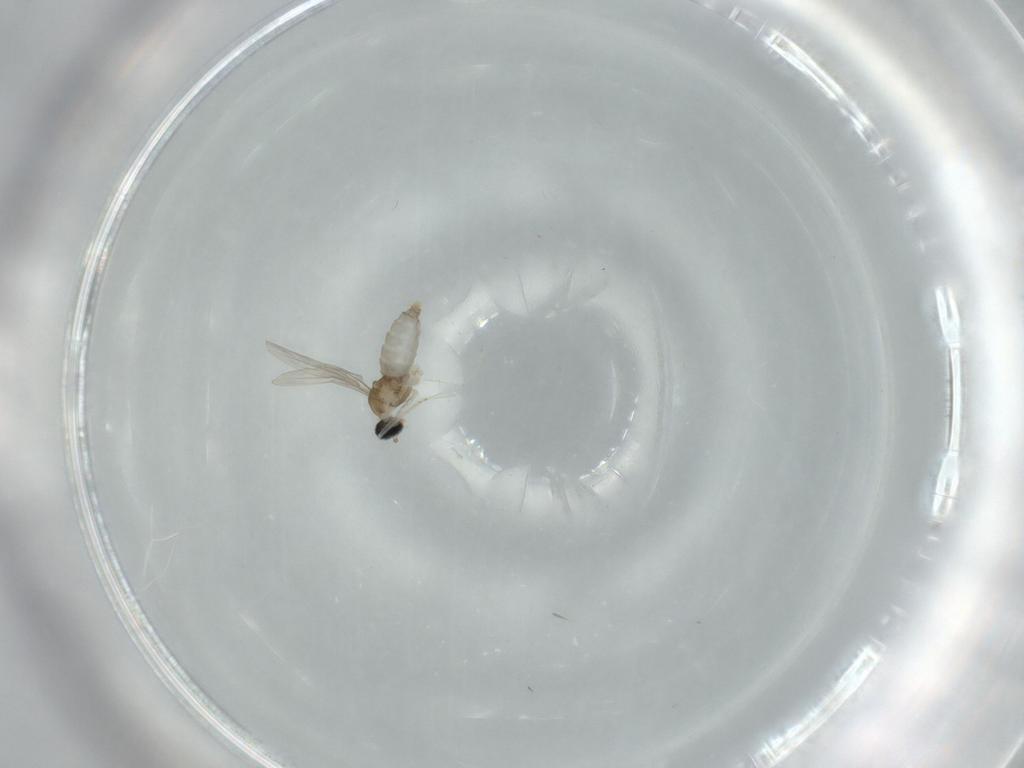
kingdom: Animalia
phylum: Arthropoda
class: Insecta
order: Diptera
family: Cecidomyiidae
